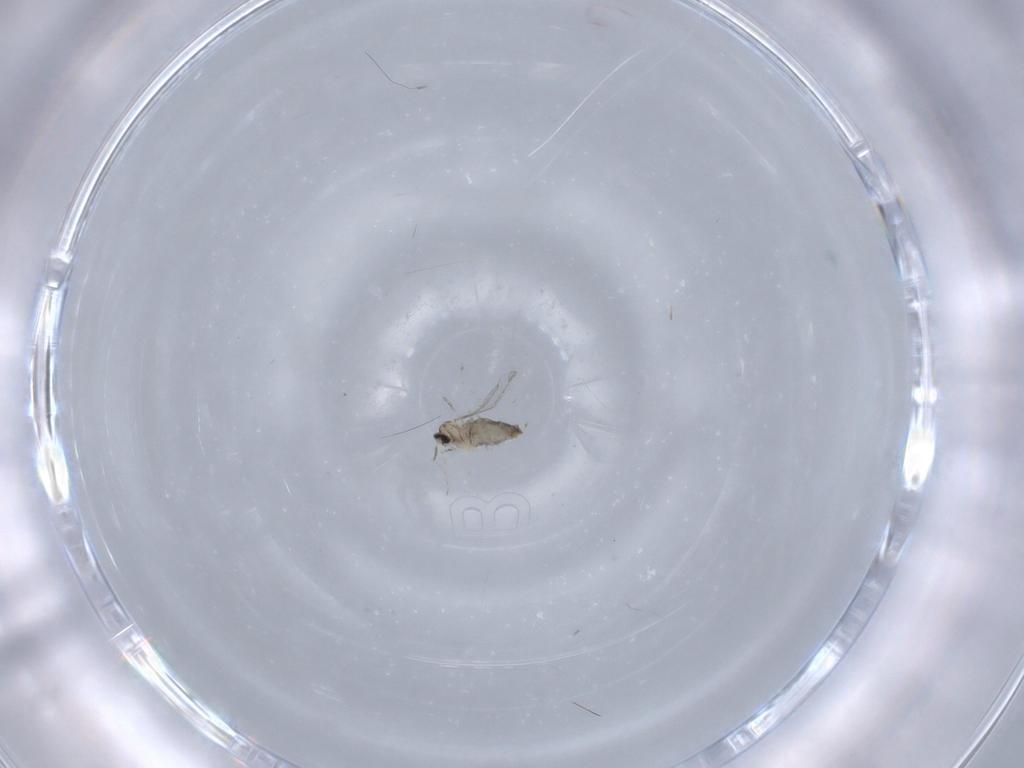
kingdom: Animalia
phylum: Arthropoda
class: Insecta
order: Diptera
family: Cecidomyiidae
